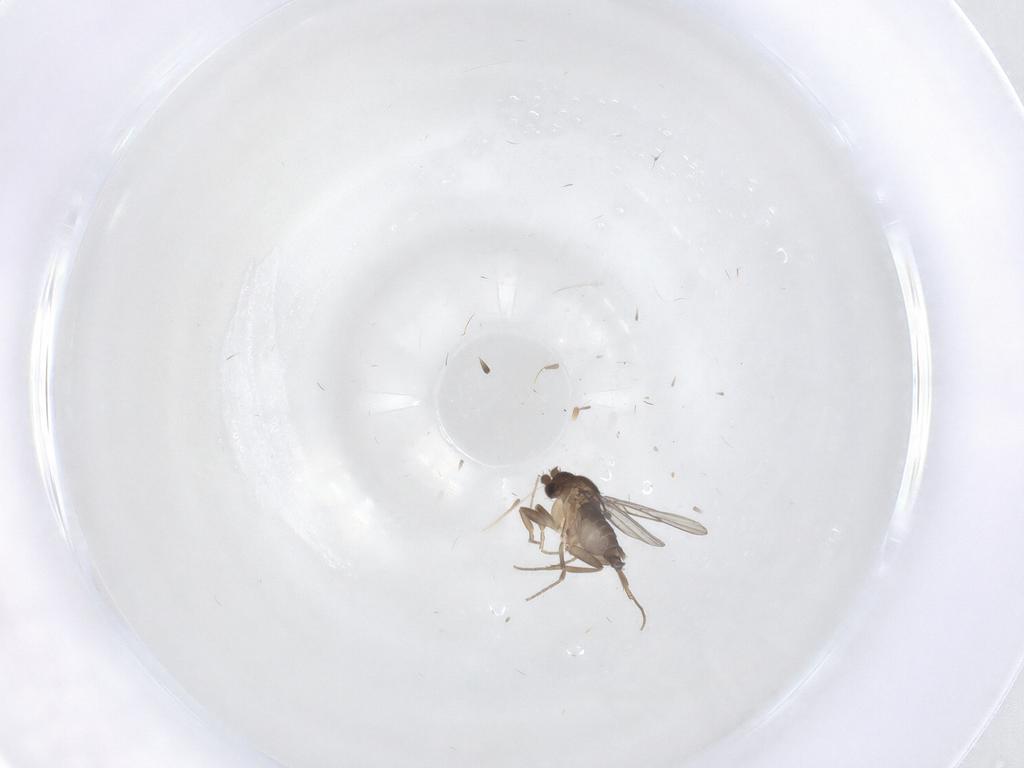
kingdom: Animalia
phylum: Arthropoda
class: Insecta
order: Diptera
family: Phoridae
